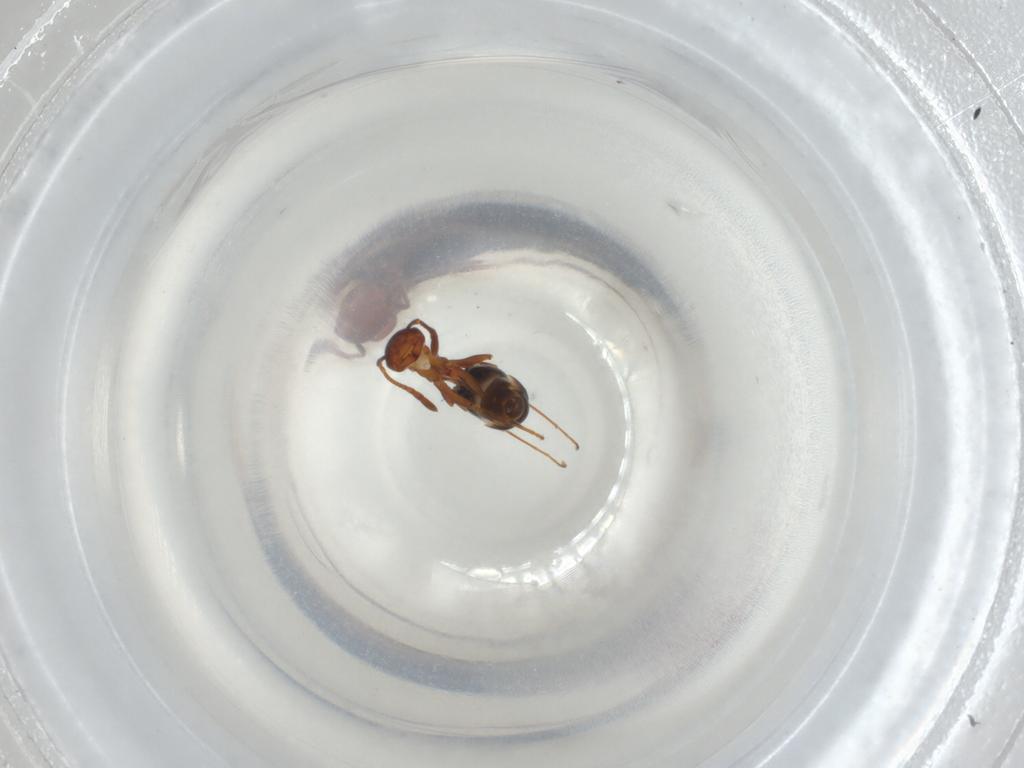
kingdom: Animalia
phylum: Arthropoda
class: Insecta
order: Hymenoptera
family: Formicidae
